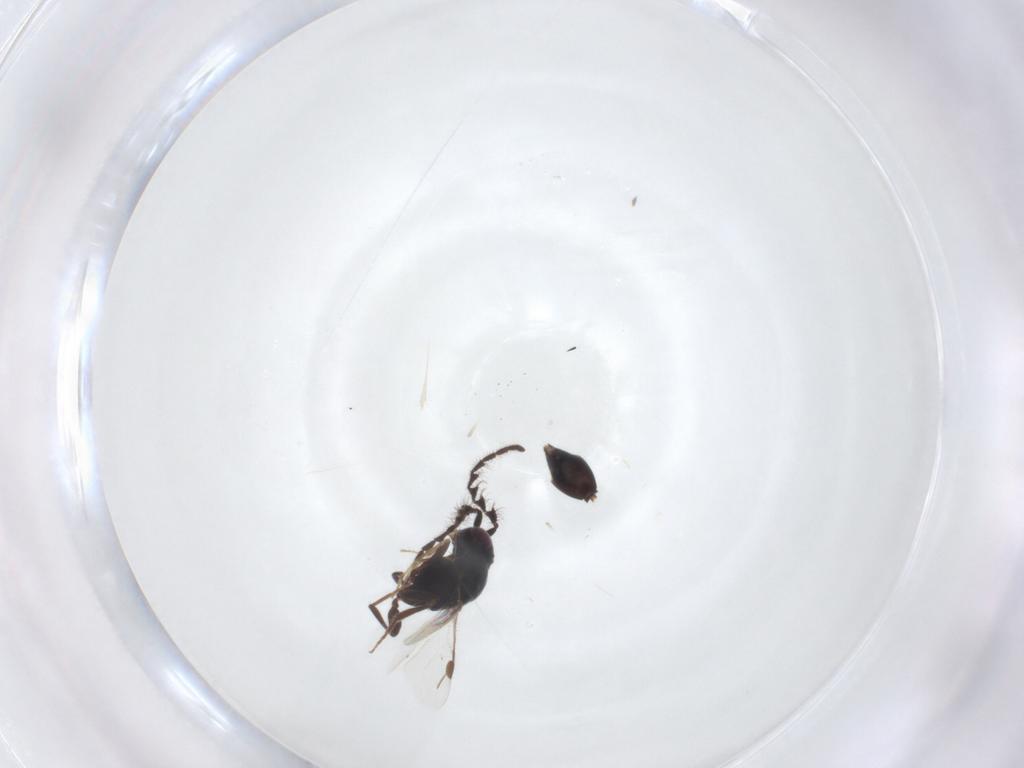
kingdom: Animalia
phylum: Arthropoda
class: Insecta
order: Hymenoptera
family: Megaspilidae
